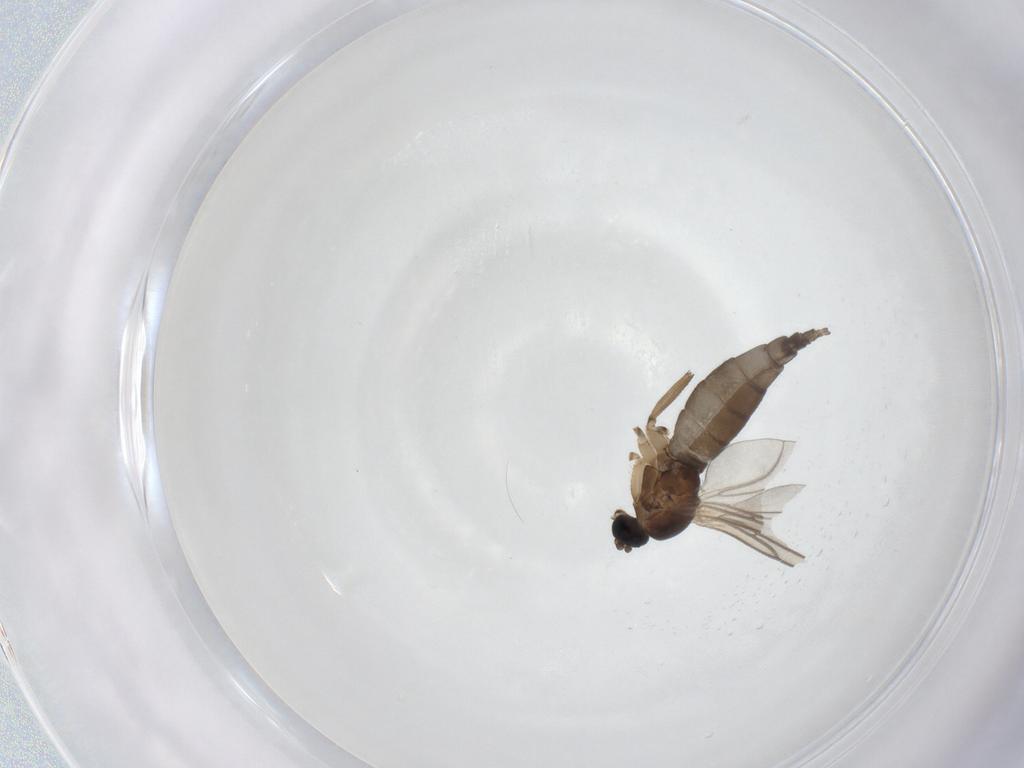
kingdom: Animalia
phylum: Arthropoda
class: Insecta
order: Diptera
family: Sciaridae
